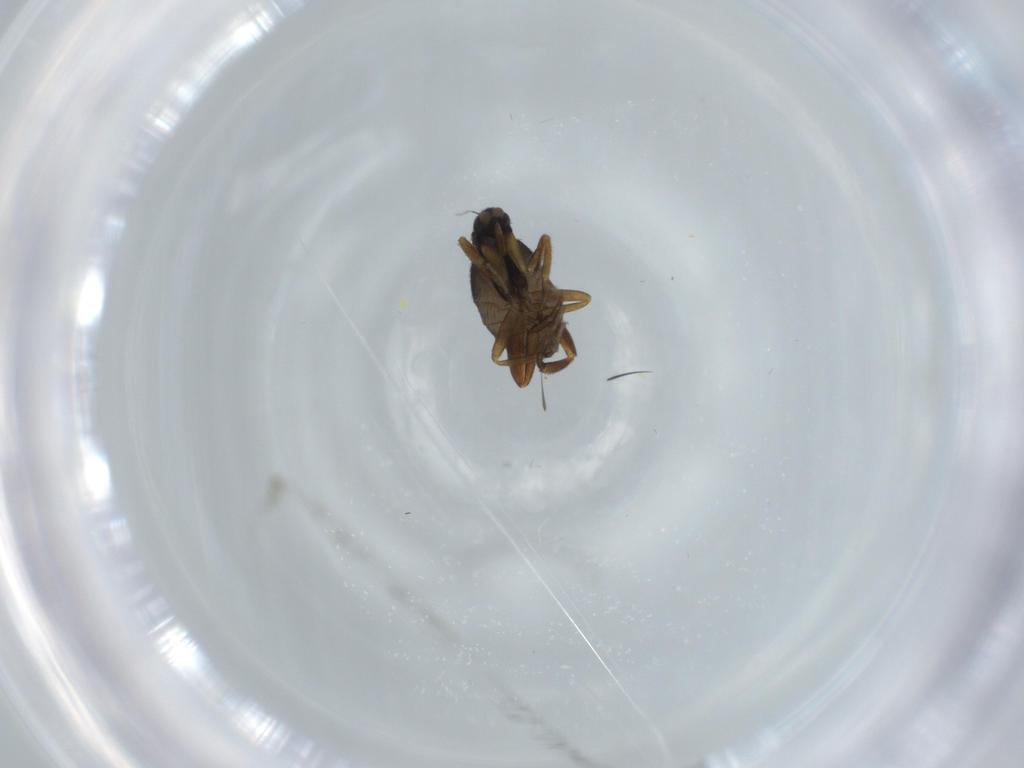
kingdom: Animalia
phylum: Arthropoda
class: Insecta
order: Diptera
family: Phoridae
